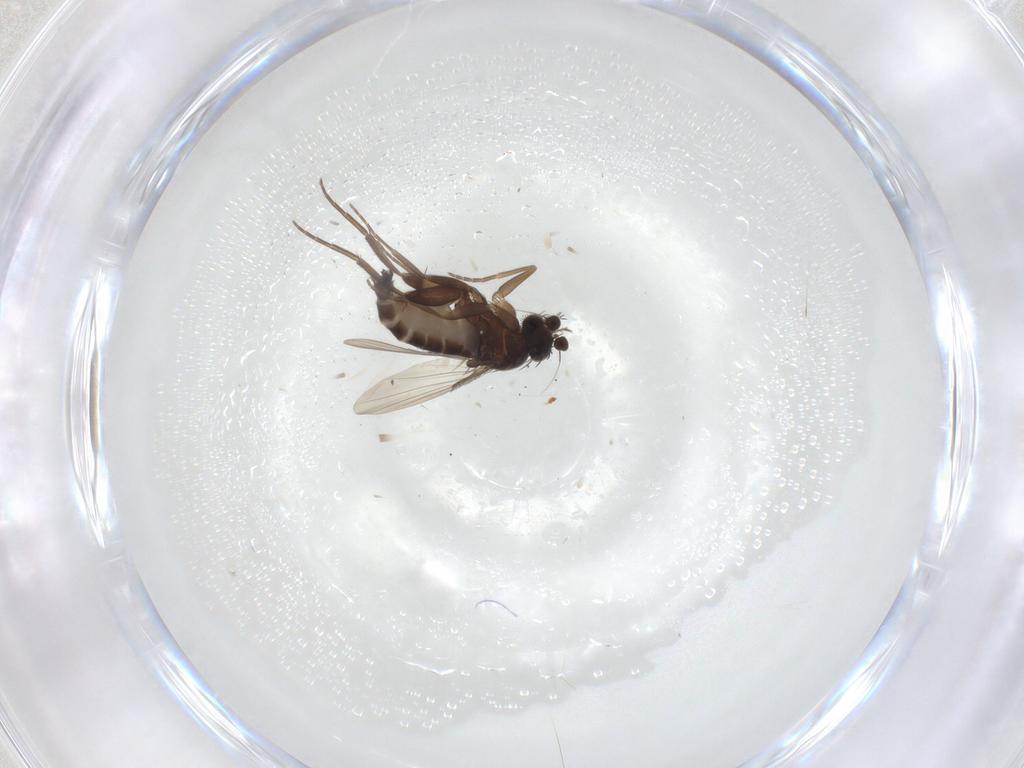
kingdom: Animalia
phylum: Arthropoda
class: Insecta
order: Diptera
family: Phoridae
